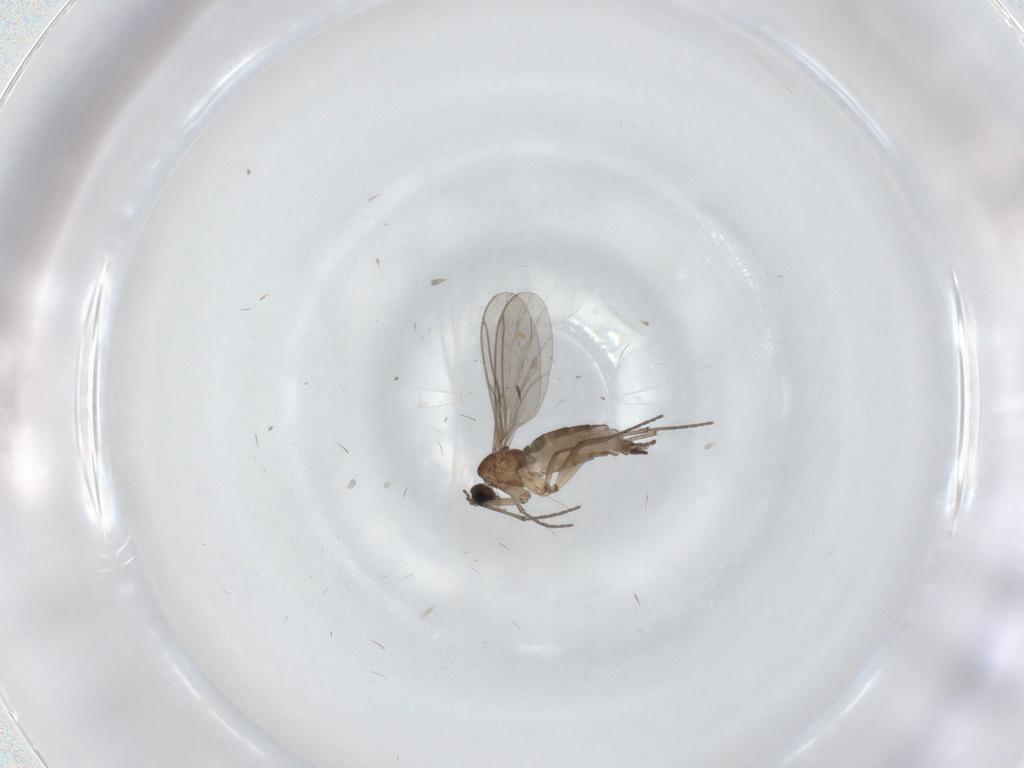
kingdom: Animalia
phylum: Arthropoda
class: Insecta
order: Diptera
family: Sciaridae
